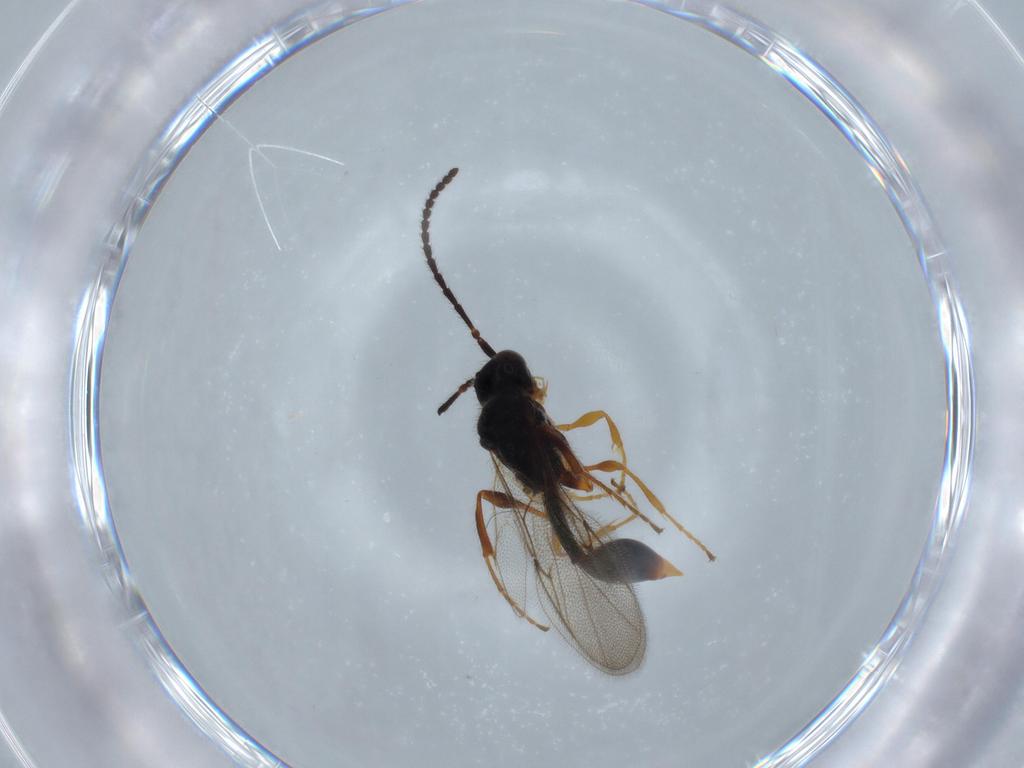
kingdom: Animalia
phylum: Arthropoda
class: Insecta
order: Hymenoptera
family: Diapriidae
